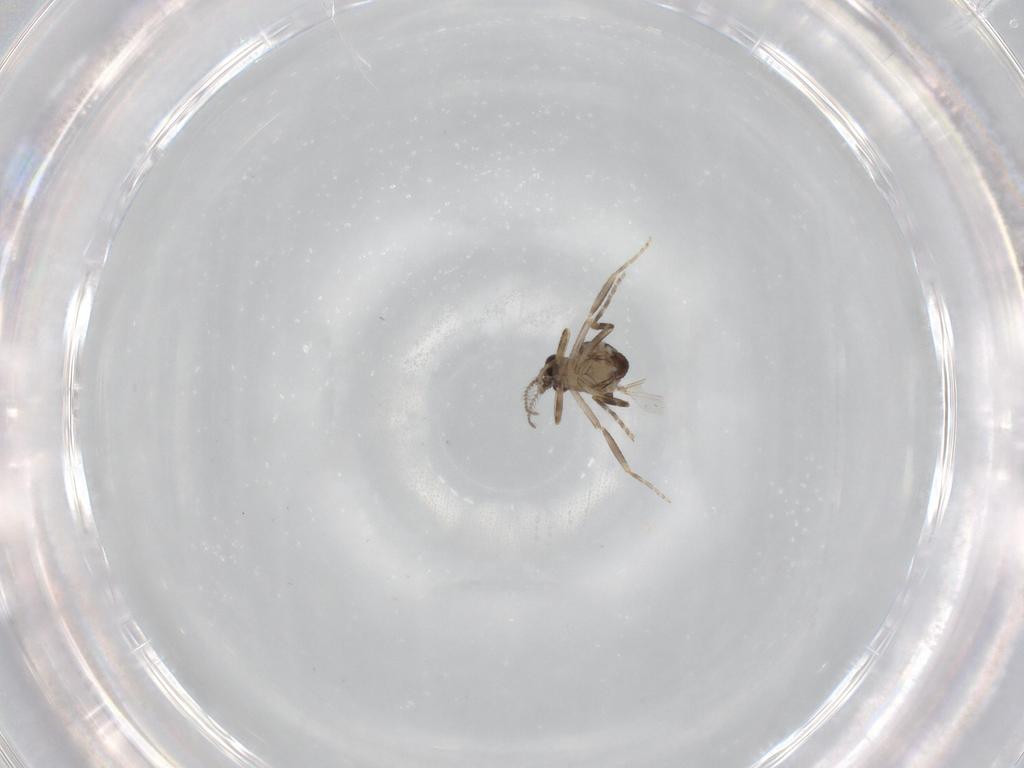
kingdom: Animalia
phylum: Arthropoda
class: Insecta
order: Diptera
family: Ceratopogonidae
